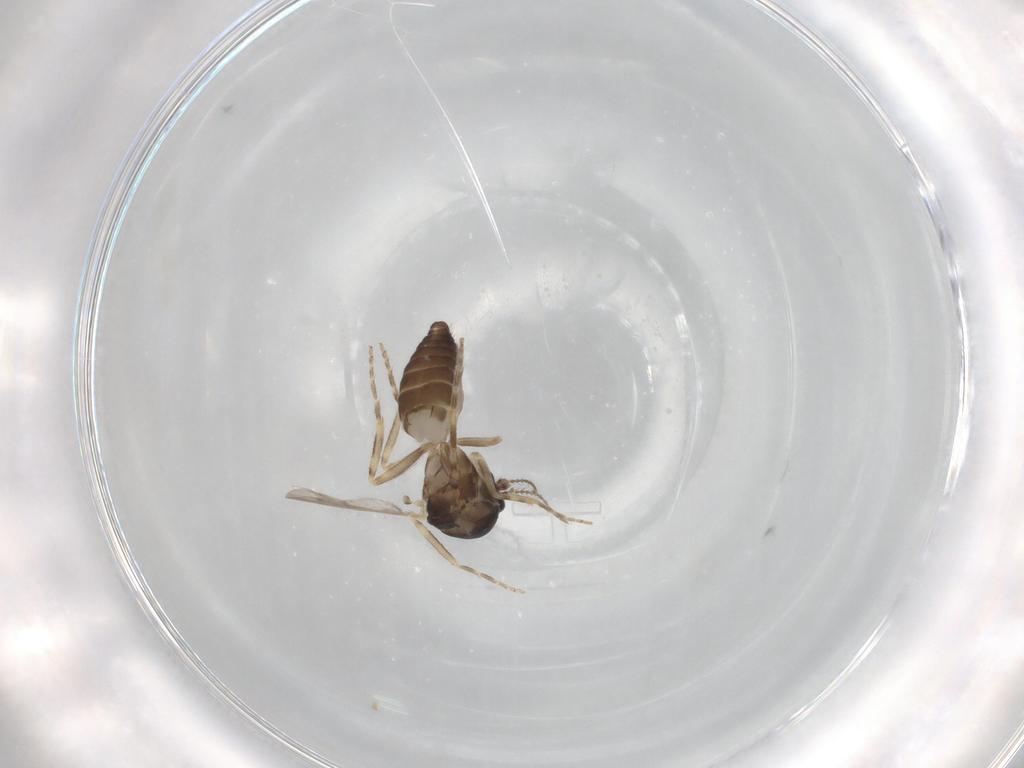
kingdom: Animalia
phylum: Arthropoda
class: Insecta
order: Diptera
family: Ceratopogonidae
